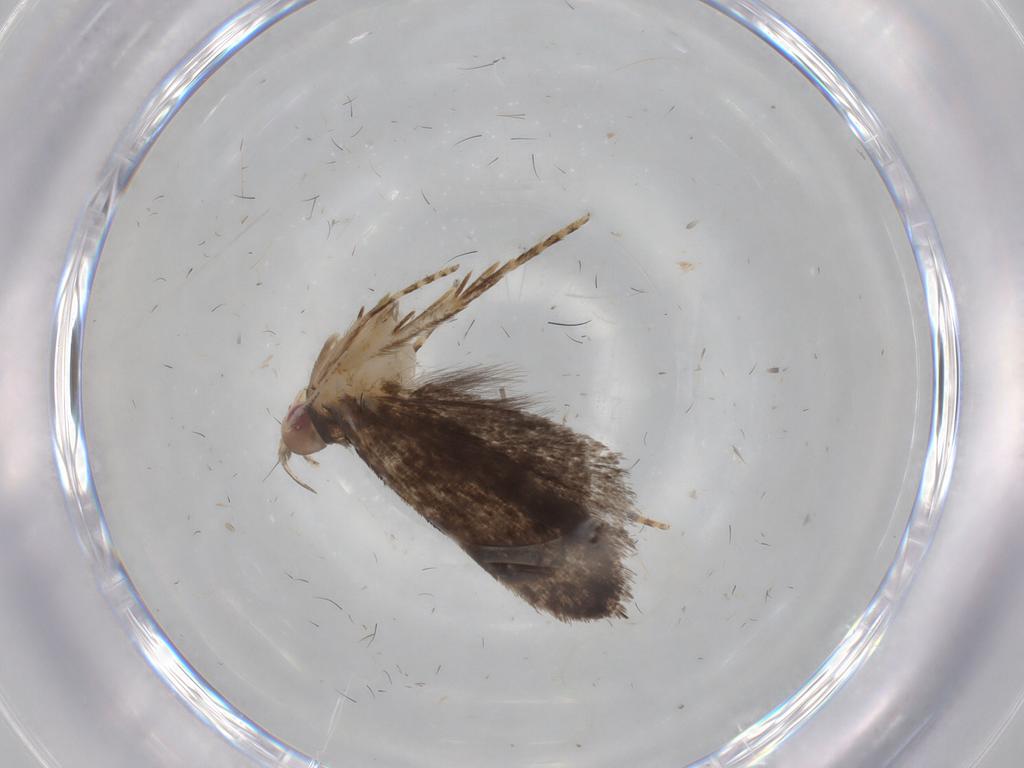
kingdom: Animalia
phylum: Arthropoda
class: Insecta
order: Lepidoptera
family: Gelechiidae
